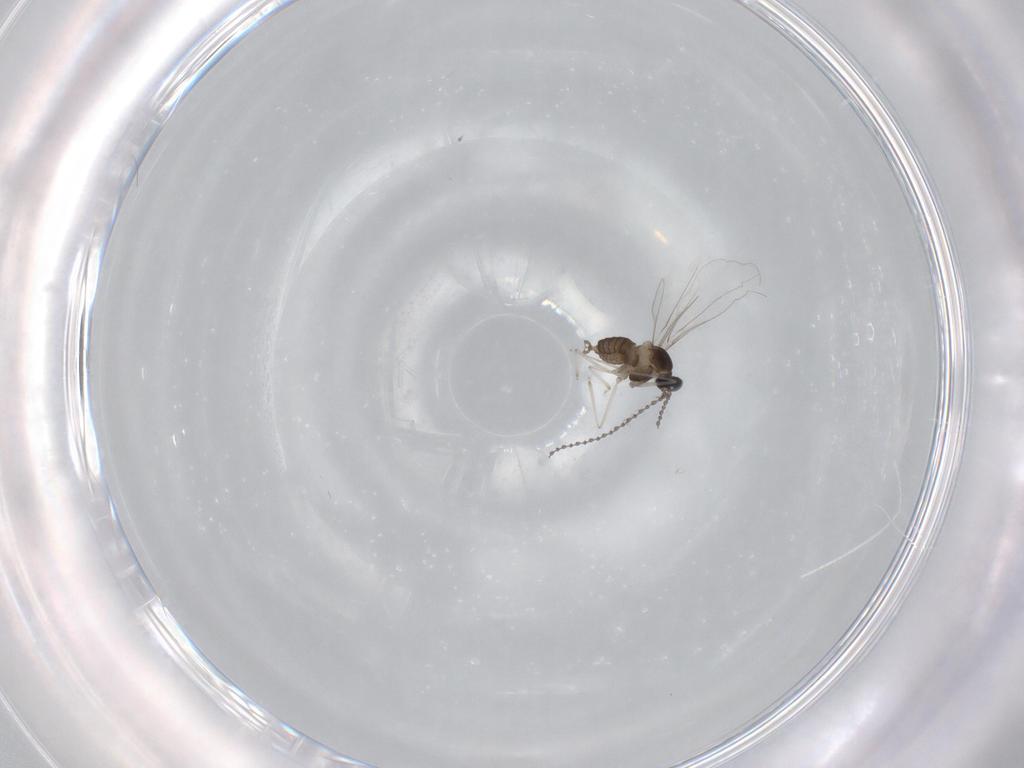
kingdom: Animalia
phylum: Arthropoda
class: Insecta
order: Diptera
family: Cecidomyiidae
